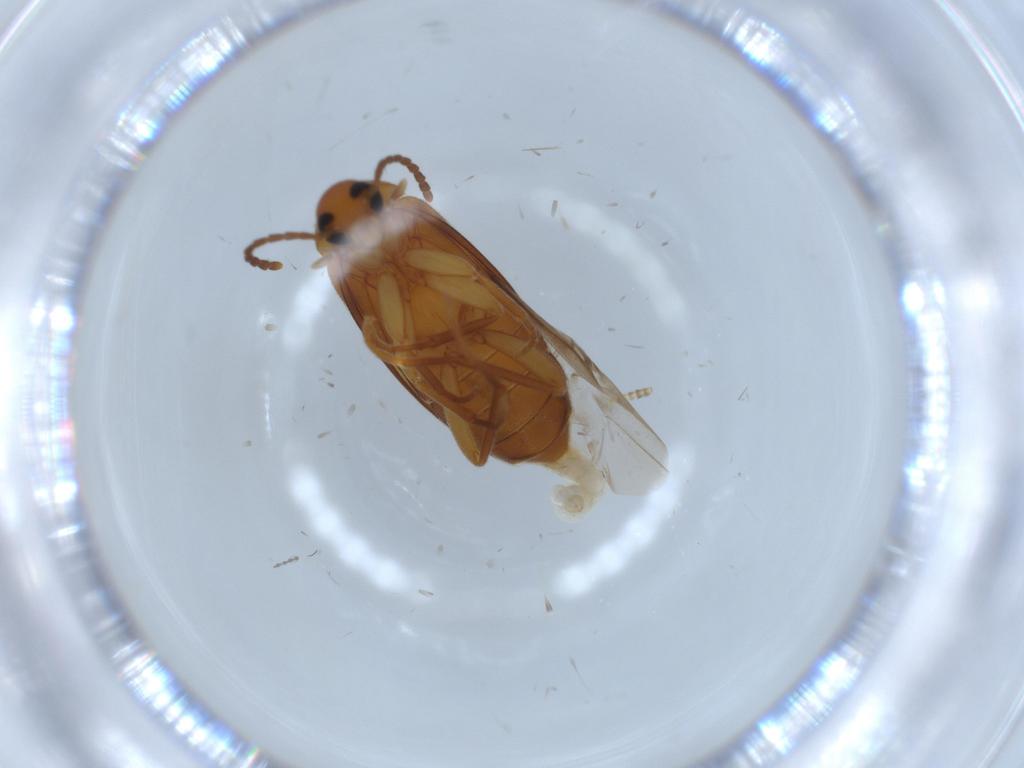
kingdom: Animalia
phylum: Arthropoda
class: Insecta
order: Coleoptera
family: Scraptiidae
